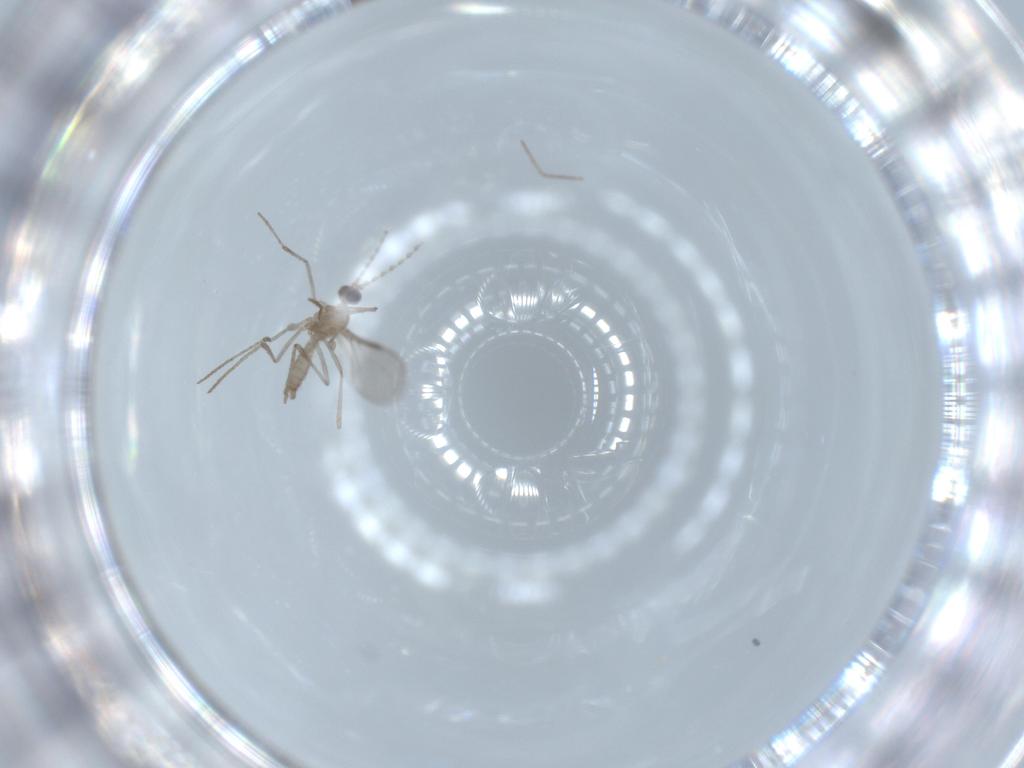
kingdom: Animalia
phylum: Arthropoda
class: Insecta
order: Diptera
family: Cecidomyiidae
